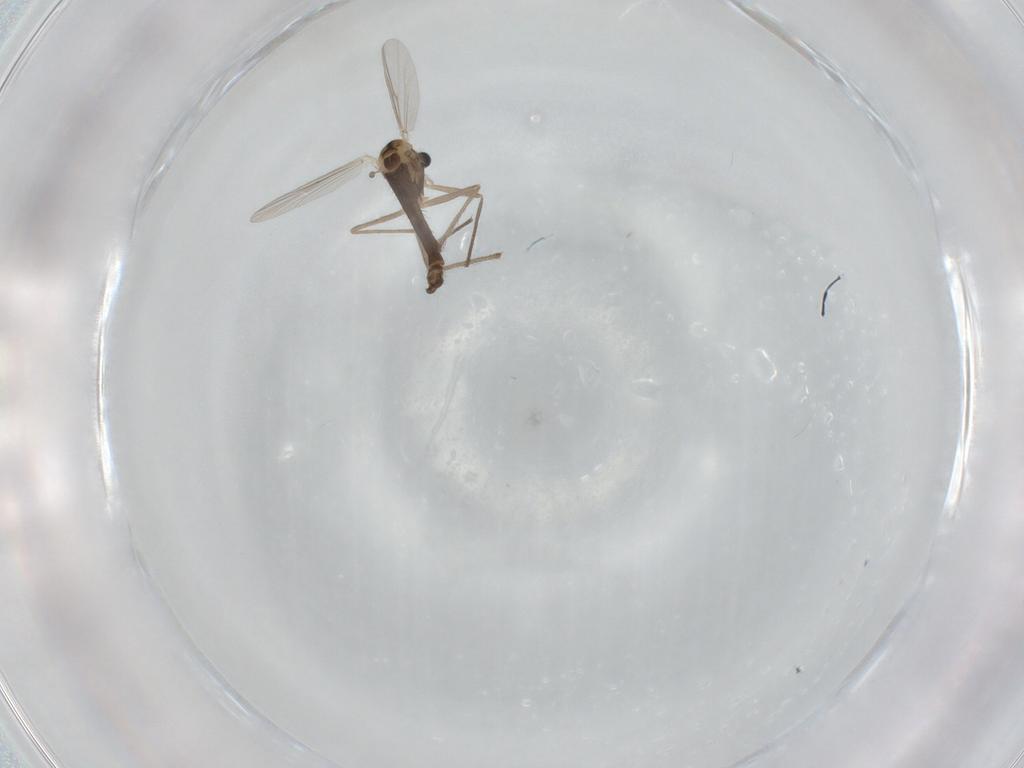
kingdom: Animalia
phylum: Arthropoda
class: Insecta
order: Diptera
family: Chironomidae
